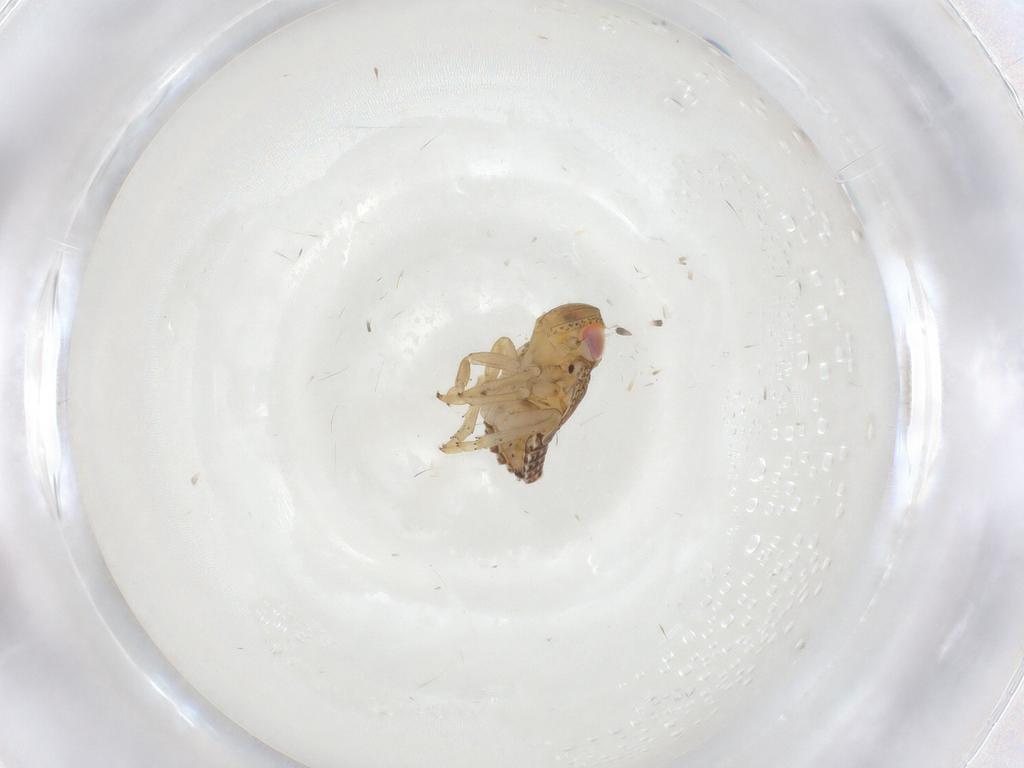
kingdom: Animalia
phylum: Arthropoda
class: Insecta
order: Hemiptera
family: Issidae
